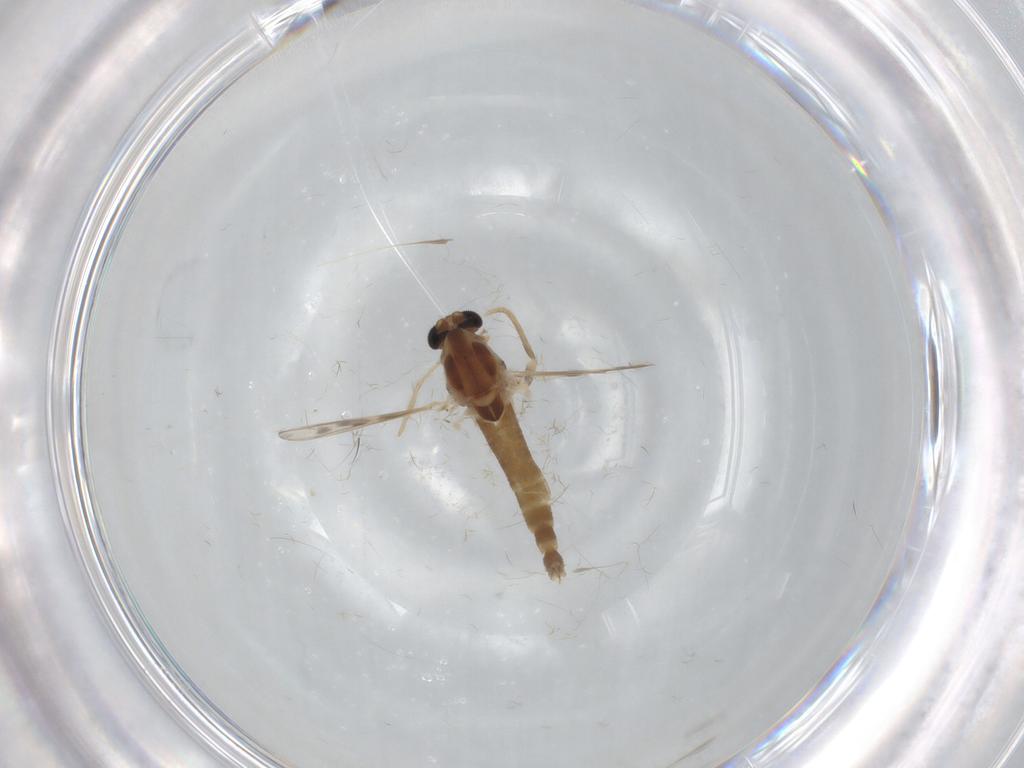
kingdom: Animalia
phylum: Arthropoda
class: Insecta
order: Diptera
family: Chironomidae
